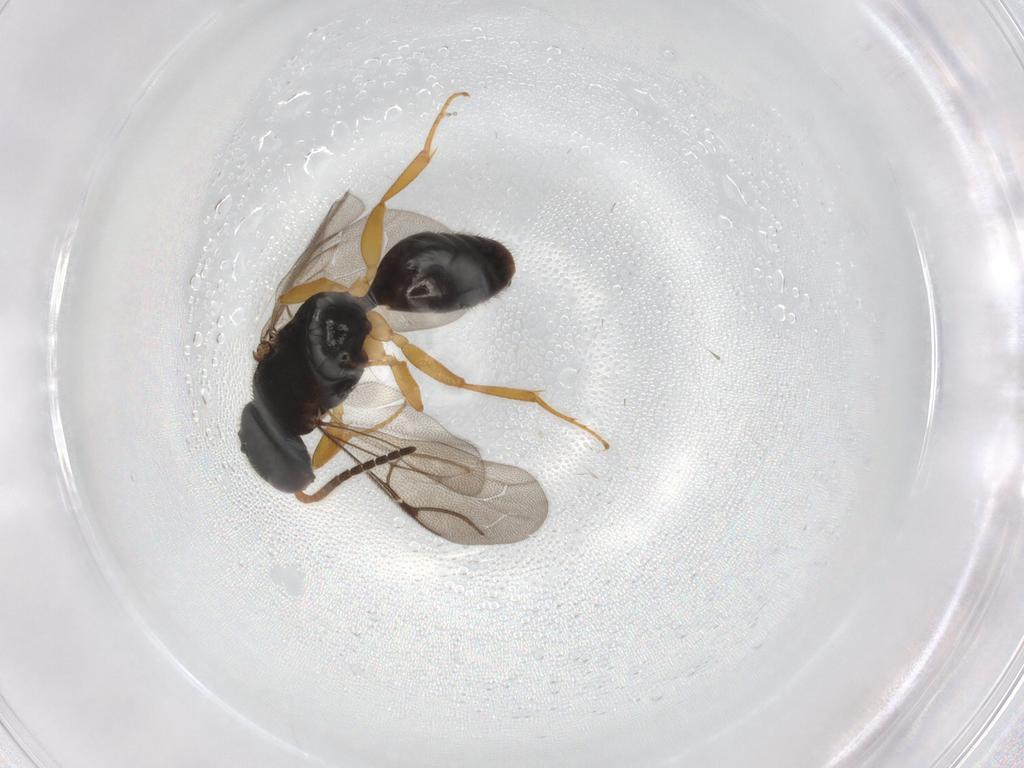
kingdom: Animalia
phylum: Arthropoda
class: Insecta
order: Hymenoptera
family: Bethylidae
